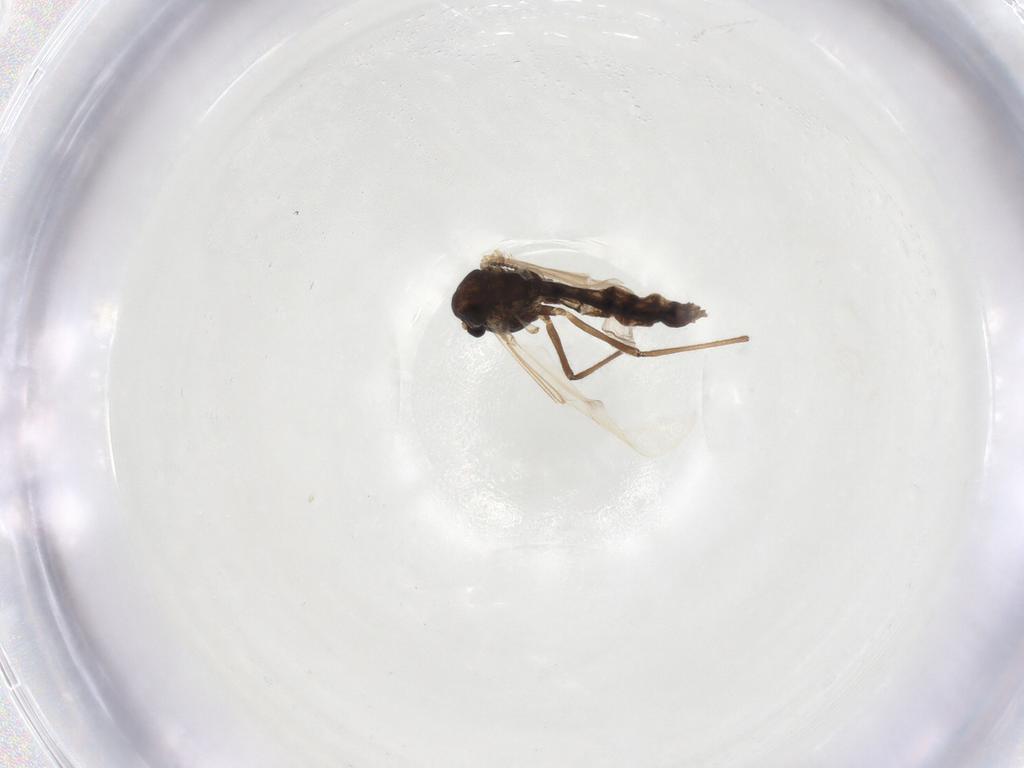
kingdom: Animalia
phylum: Arthropoda
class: Insecta
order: Diptera
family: Chironomidae
